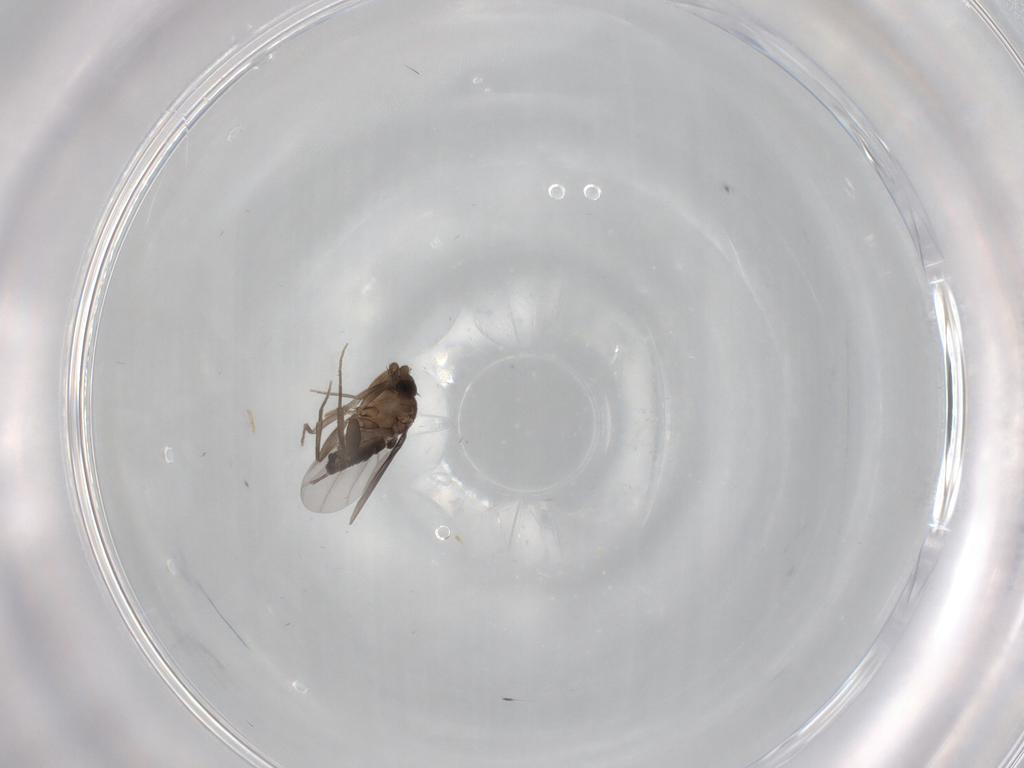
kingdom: Animalia
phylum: Arthropoda
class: Insecta
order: Diptera
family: Phoridae
